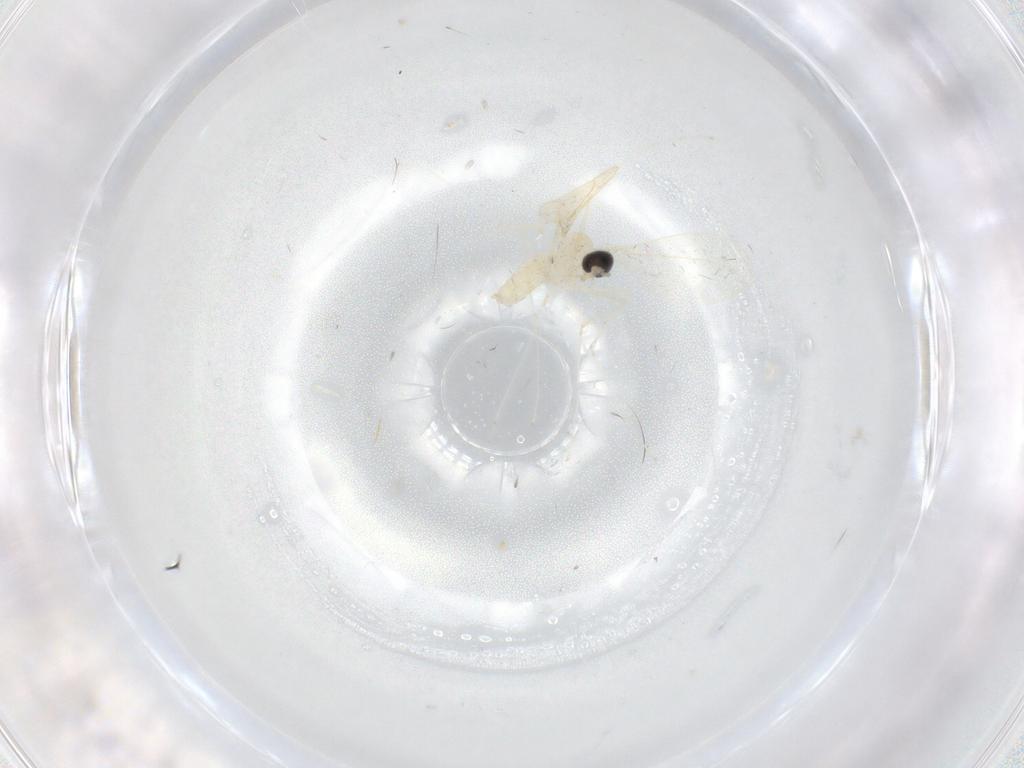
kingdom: Animalia
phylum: Arthropoda
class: Insecta
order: Diptera
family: Cecidomyiidae
